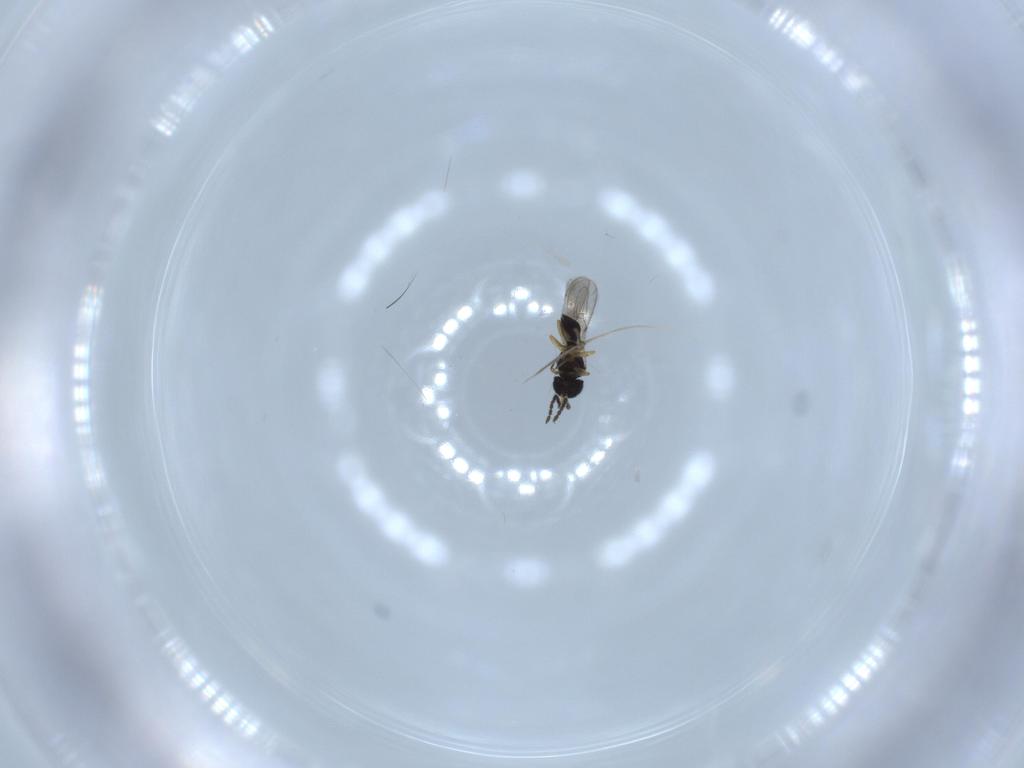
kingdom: Animalia
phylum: Arthropoda
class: Insecta
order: Hymenoptera
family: Scelionidae
